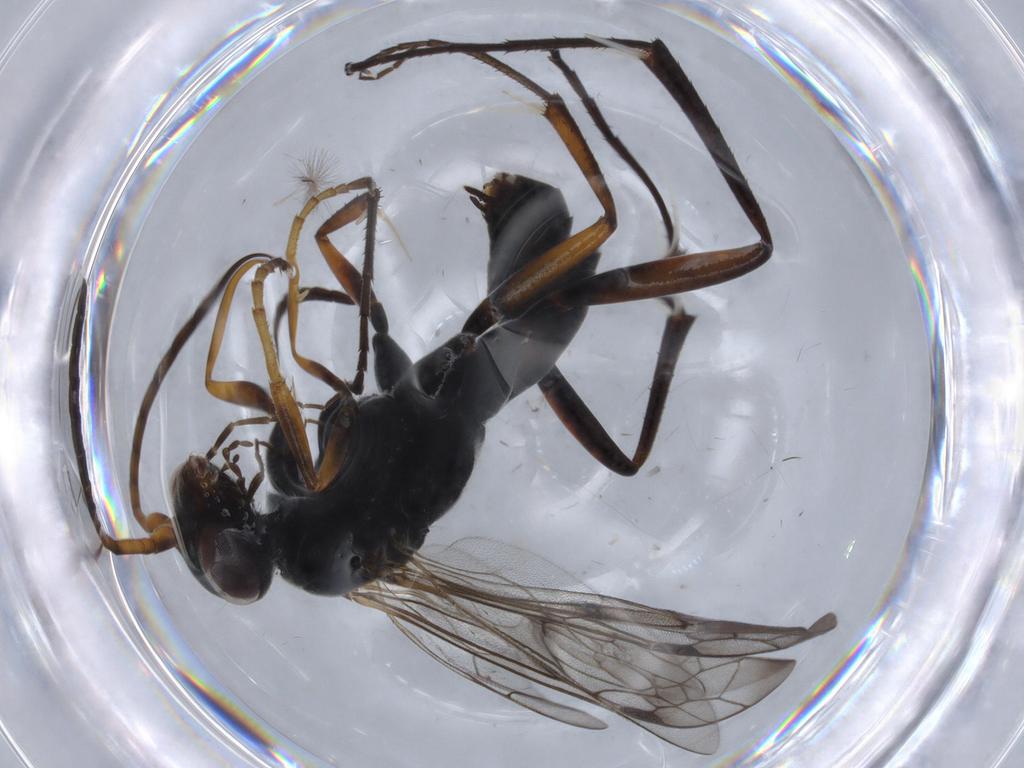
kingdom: Animalia
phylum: Arthropoda
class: Insecta
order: Hymenoptera
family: Pompilidae
